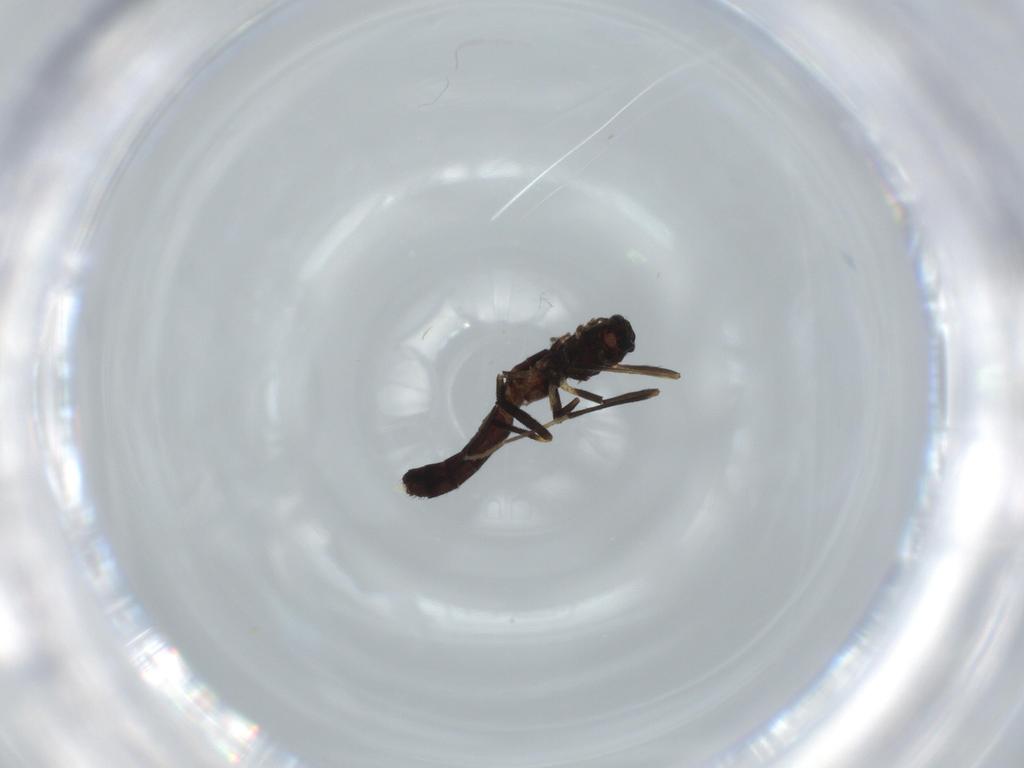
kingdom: Animalia
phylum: Arthropoda
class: Insecta
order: Diptera
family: Chironomidae
